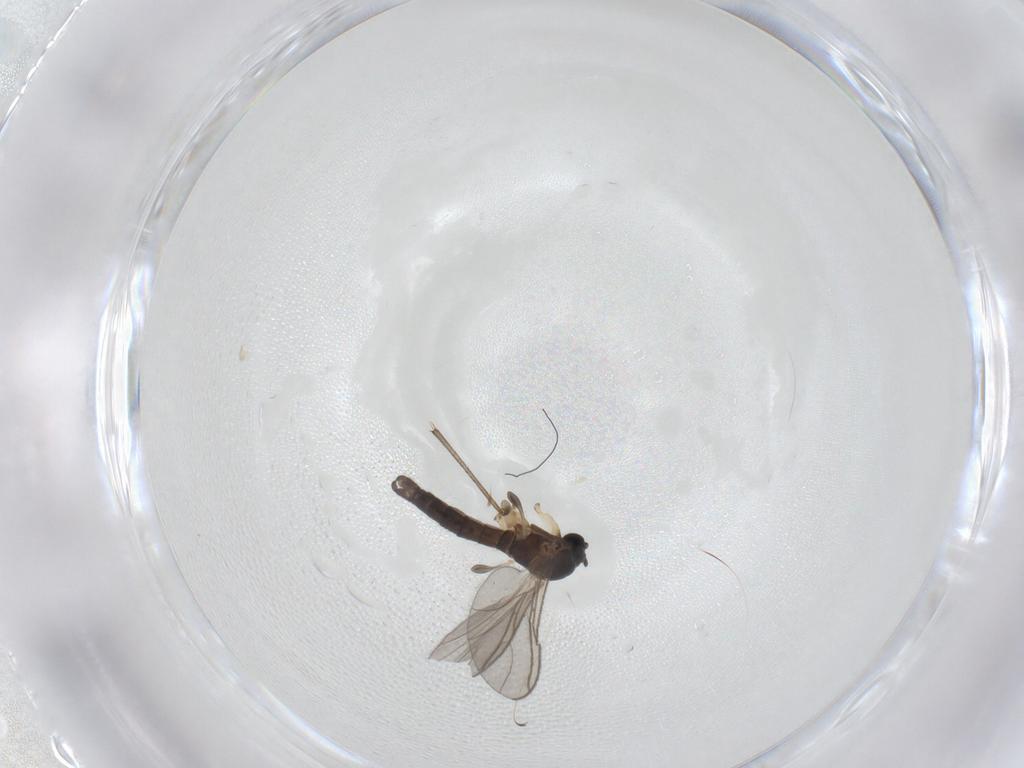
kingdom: Animalia
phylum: Arthropoda
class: Insecta
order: Diptera
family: Sciaridae
